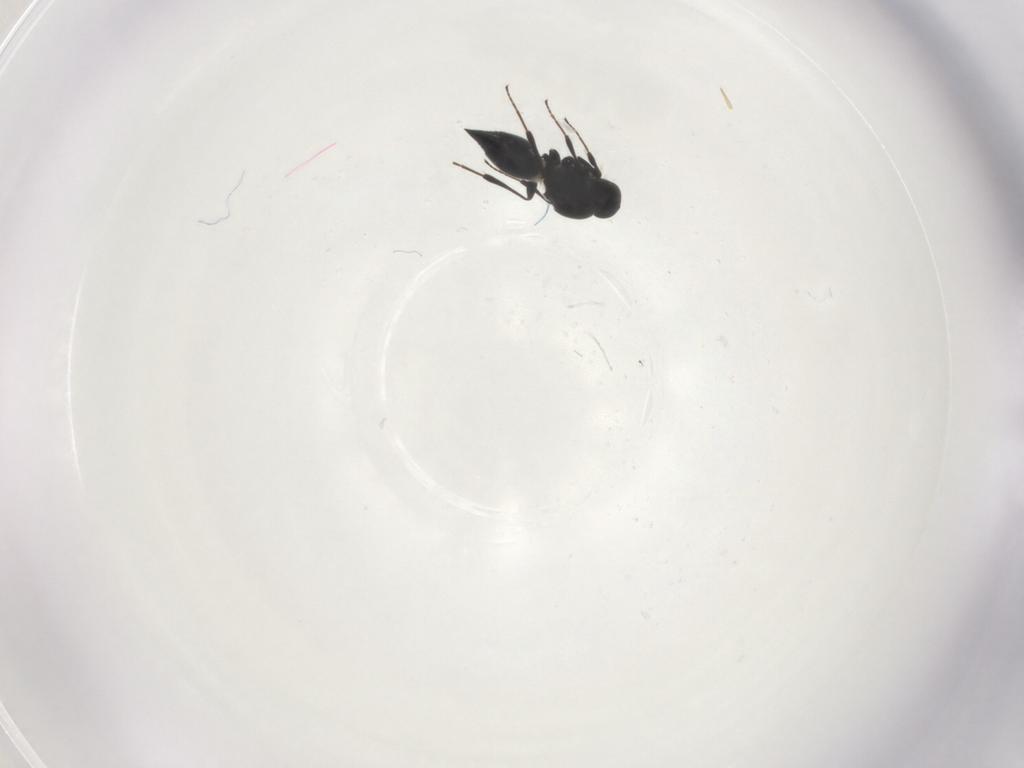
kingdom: Animalia
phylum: Arthropoda
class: Insecta
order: Hymenoptera
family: Platygastridae
